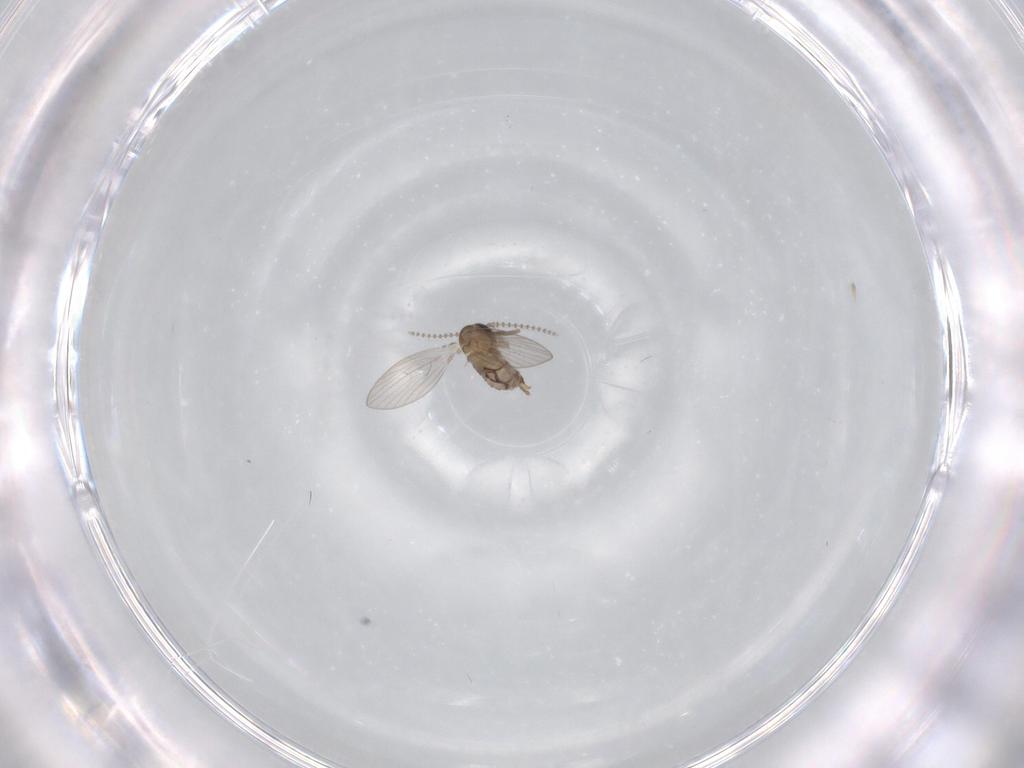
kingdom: Animalia
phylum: Arthropoda
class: Insecta
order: Diptera
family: Psychodidae
